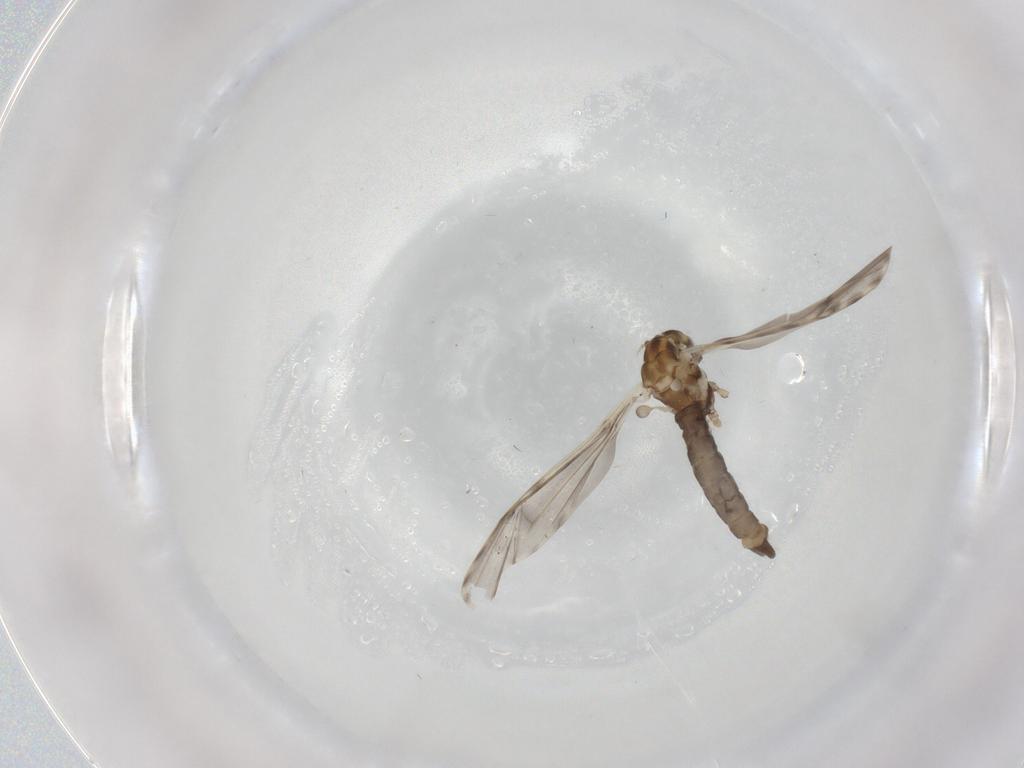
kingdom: Animalia
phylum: Arthropoda
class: Insecta
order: Diptera
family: Limoniidae
